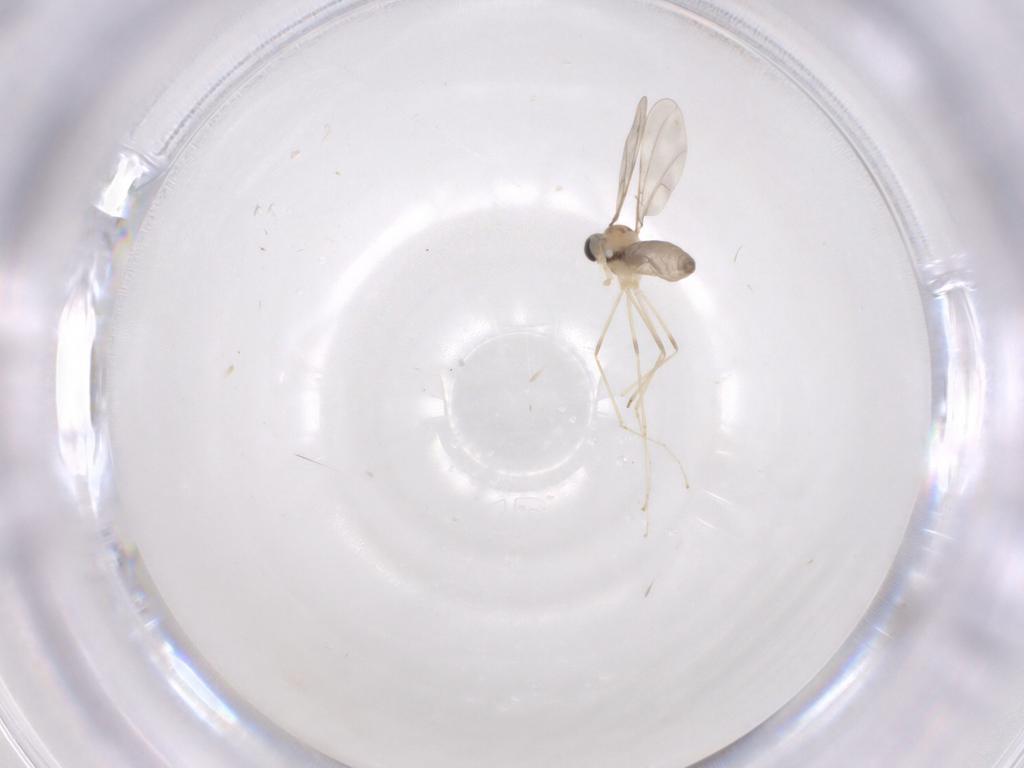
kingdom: Animalia
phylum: Arthropoda
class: Insecta
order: Diptera
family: Cecidomyiidae
